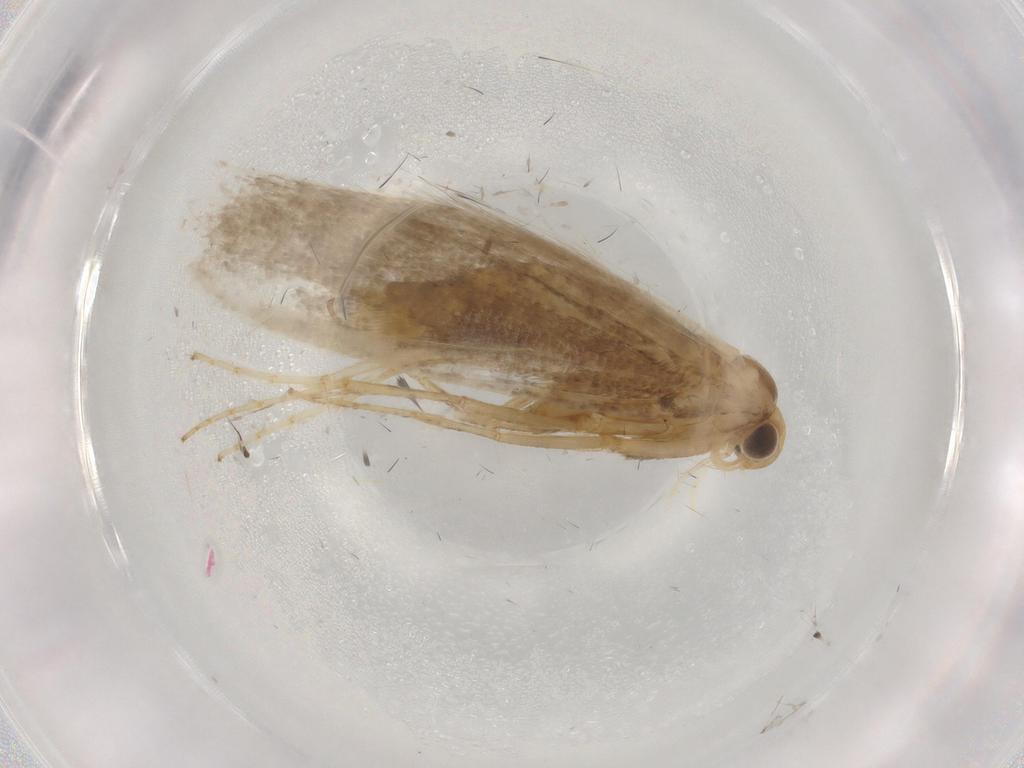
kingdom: Animalia
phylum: Arthropoda
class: Insecta
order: Lepidoptera
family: Argyresthiidae
